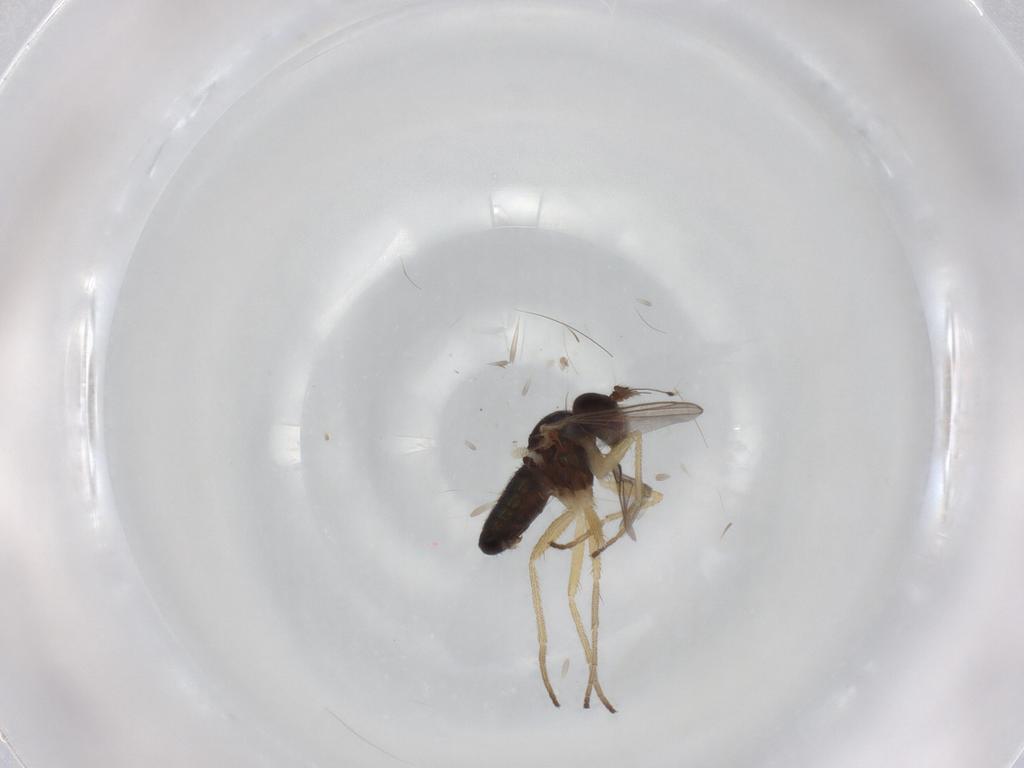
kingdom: Animalia
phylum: Arthropoda
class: Insecta
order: Diptera
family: Dolichopodidae
